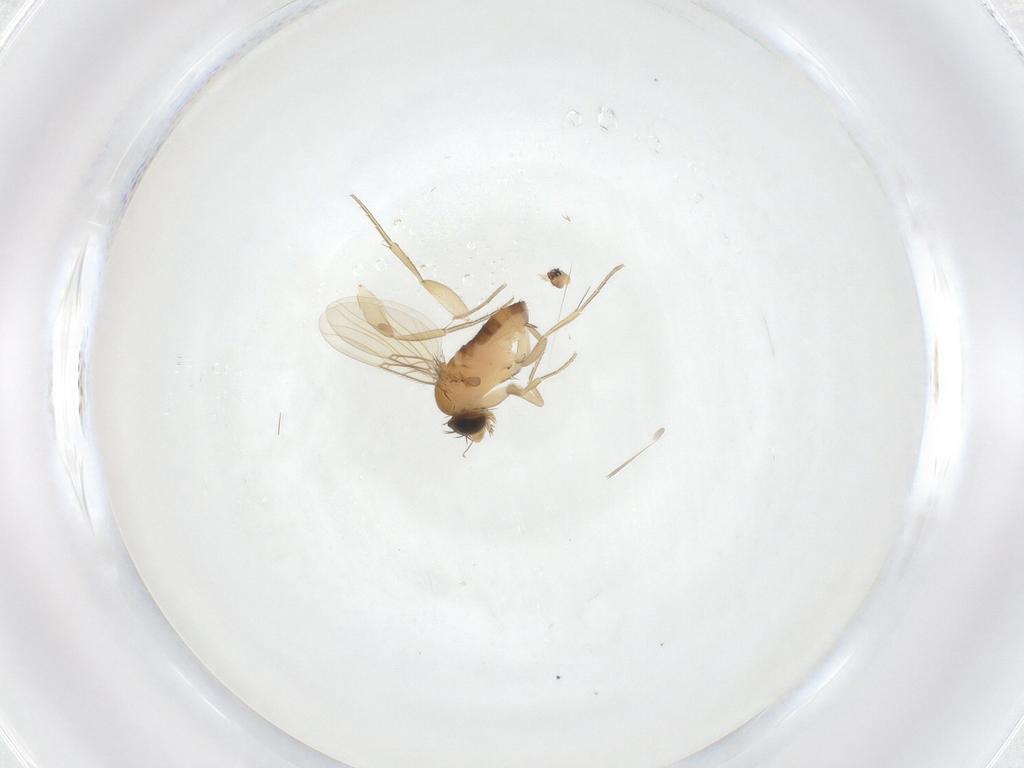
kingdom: Animalia
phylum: Arthropoda
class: Insecta
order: Diptera
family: Phoridae
